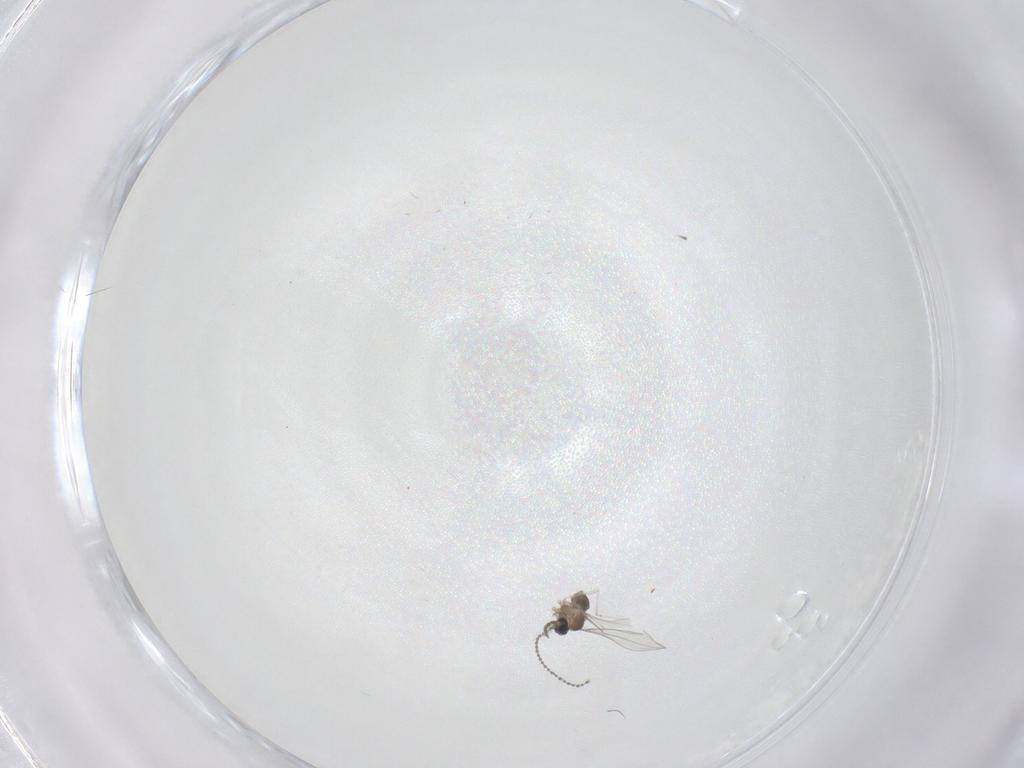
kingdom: Animalia
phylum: Arthropoda
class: Insecta
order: Diptera
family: Cecidomyiidae
